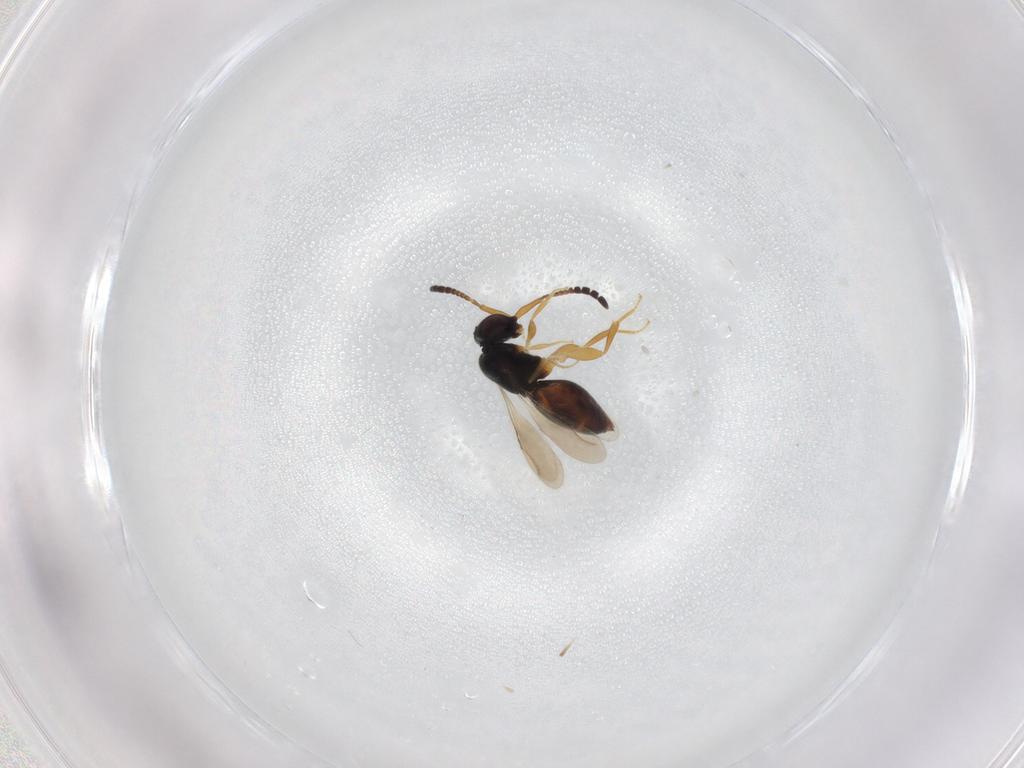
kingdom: Animalia
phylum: Arthropoda
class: Insecta
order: Hymenoptera
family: Eulophidae
